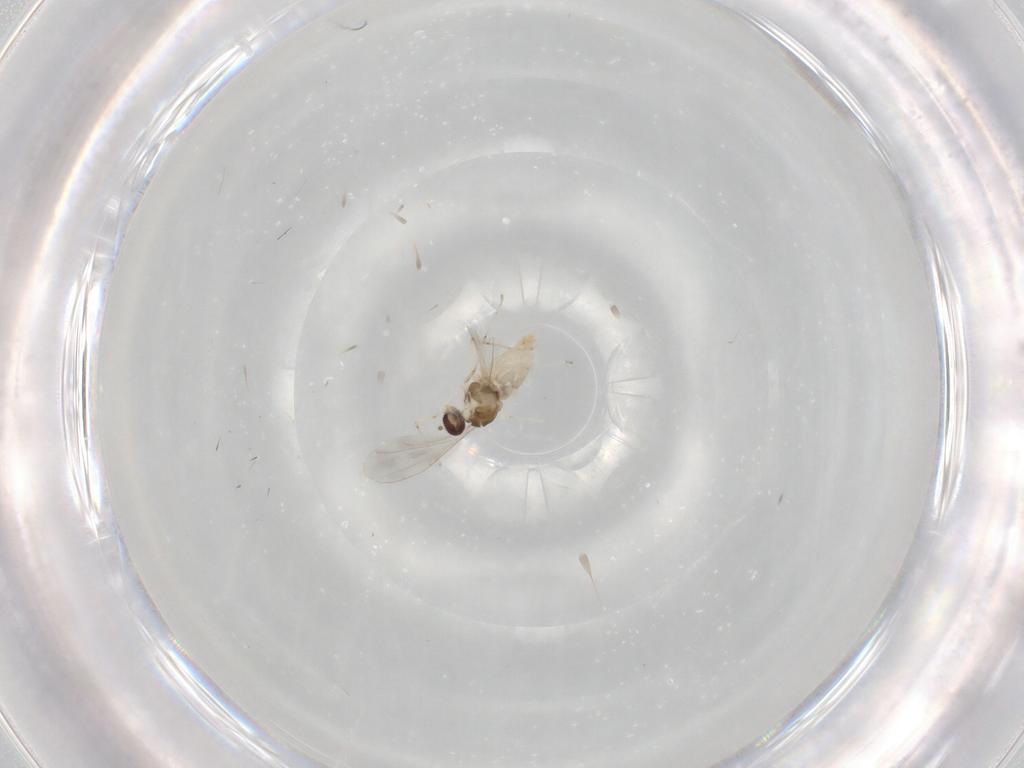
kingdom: Animalia
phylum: Arthropoda
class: Insecta
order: Diptera
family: Cecidomyiidae
